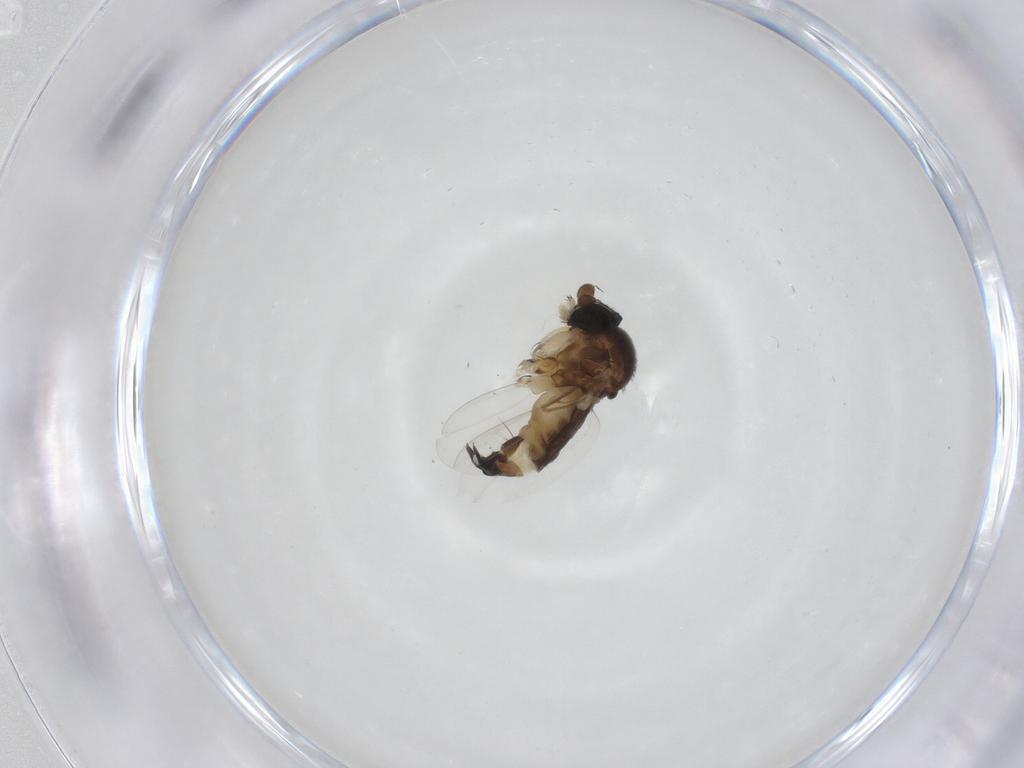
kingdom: Animalia
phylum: Arthropoda
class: Insecta
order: Diptera
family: Phoridae
